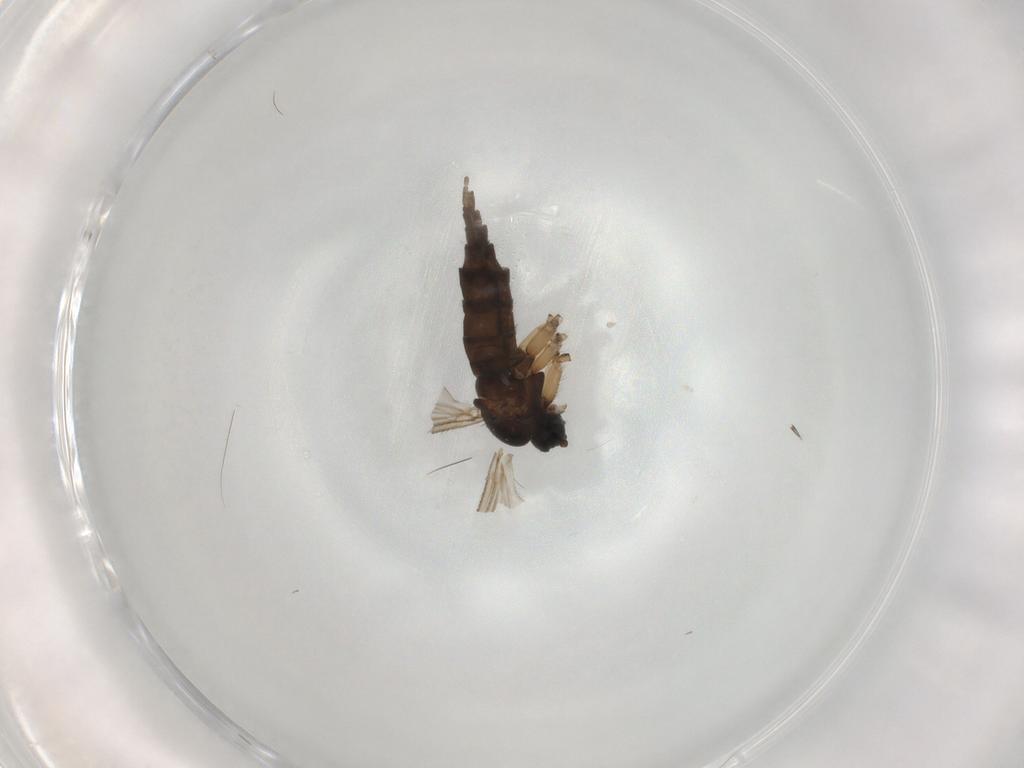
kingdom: Animalia
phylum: Arthropoda
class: Insecta
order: Diptera
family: Sciaridae
